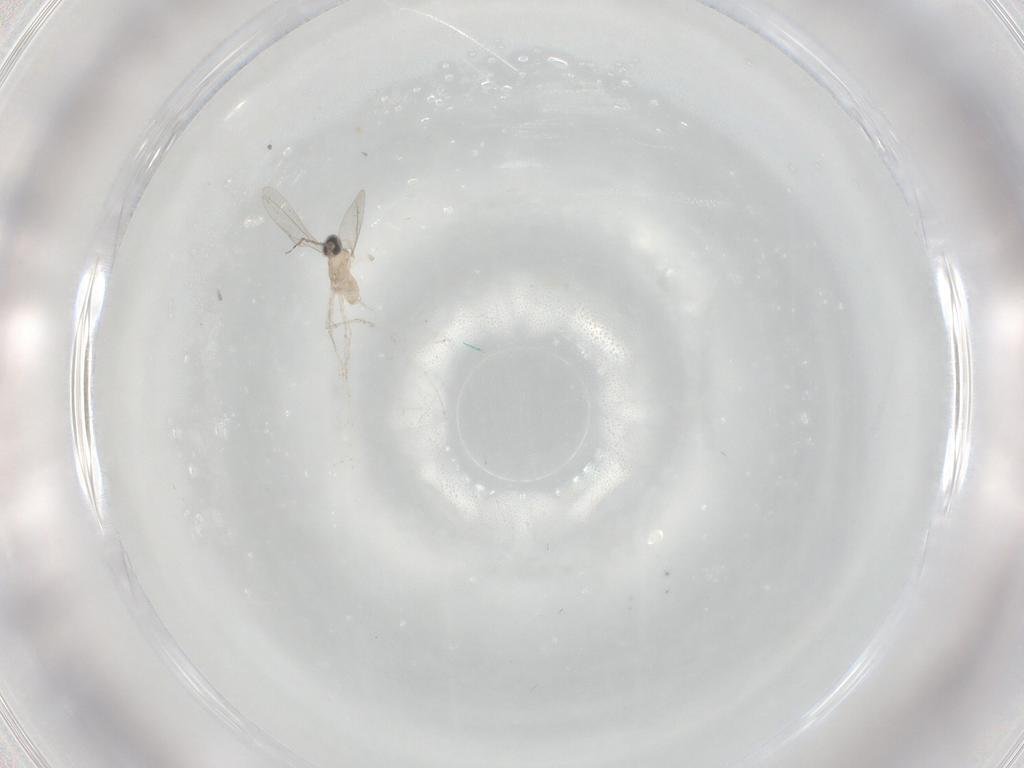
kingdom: Animalia
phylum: Arthropoda
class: Insecta
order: Diptera
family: Cecidomyiidae
